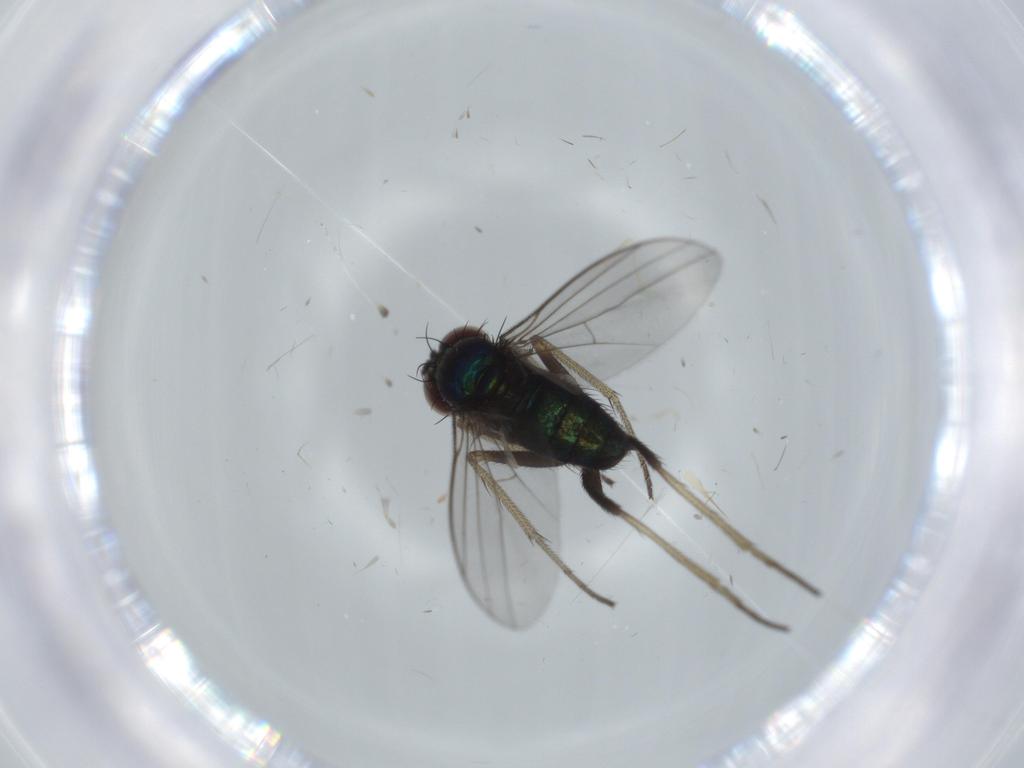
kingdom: Animalia
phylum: Arthropoda
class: Insecta
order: Diptera
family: Cecidomyiidae
